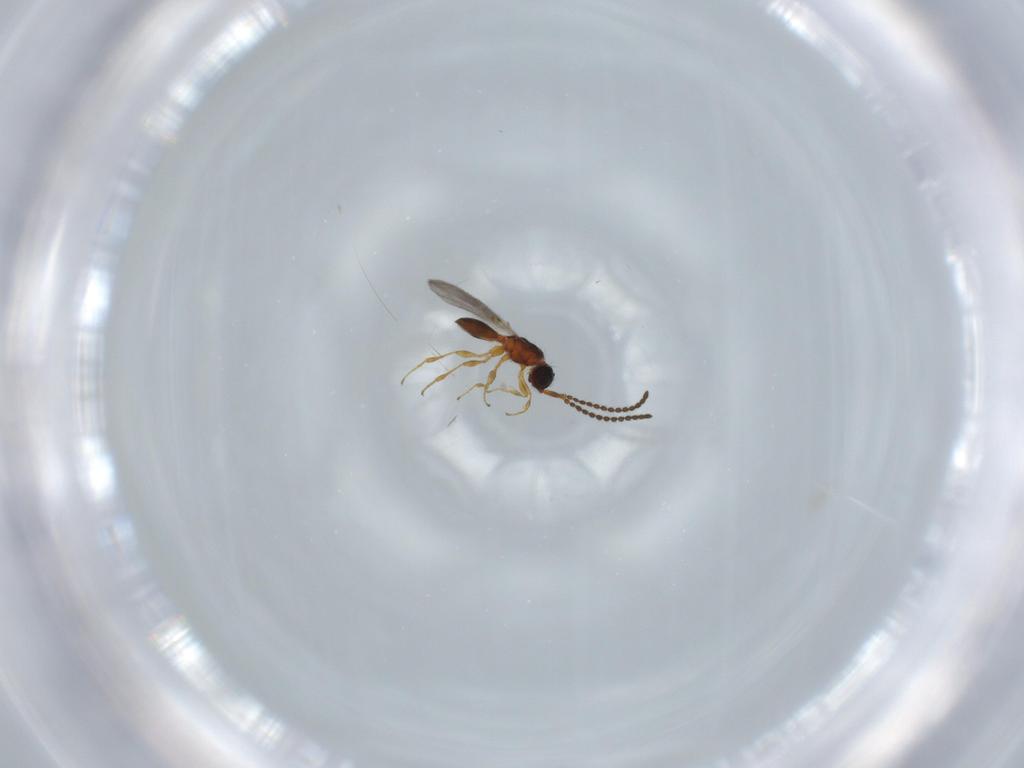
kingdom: Animalia
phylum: Arthropoda
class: Insecta
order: Hymenoptera
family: Diapriidae
